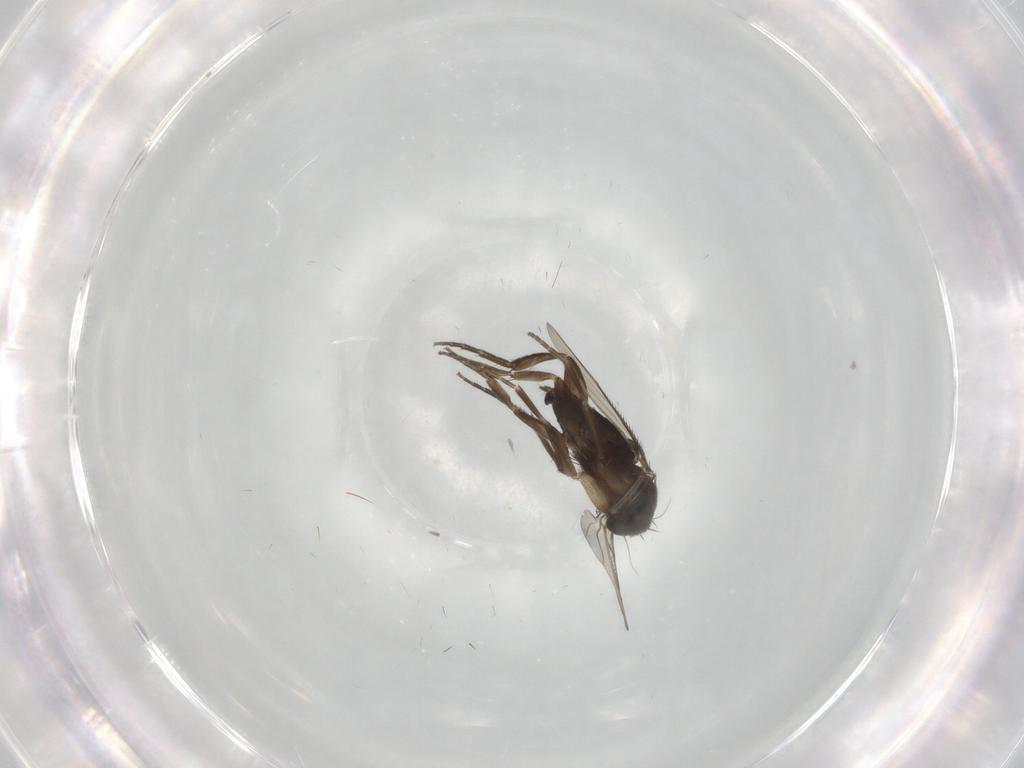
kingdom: Animalia
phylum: Arthropoda
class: Insecta
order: Diptera
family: Phoridae
